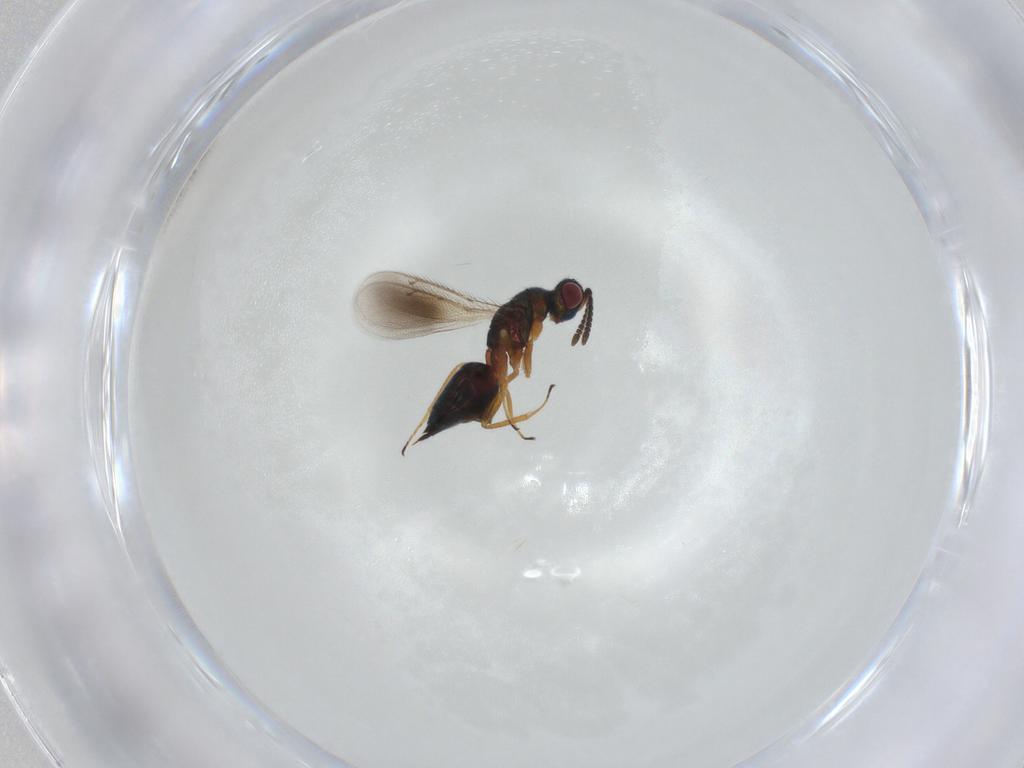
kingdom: Animalia
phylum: Arthropoda
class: Insecta
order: Hymenoptera
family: Tetracampidae
